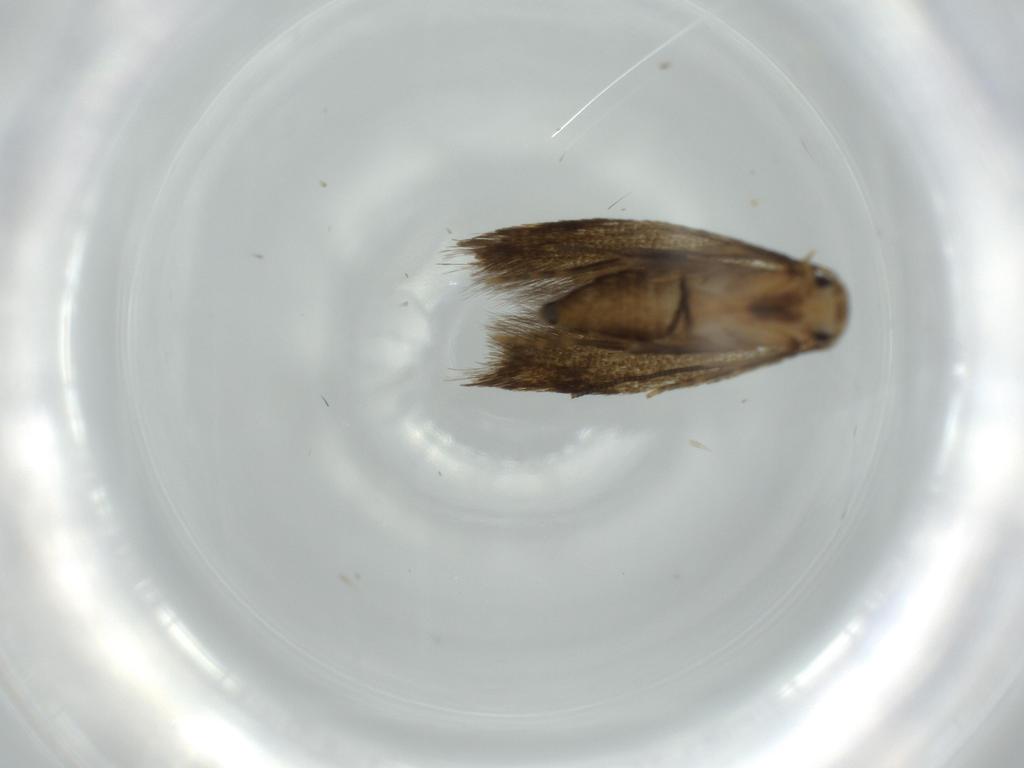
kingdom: Animalia
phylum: Arthropoda
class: Insecta
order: Lepidoptera
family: Tineidae
